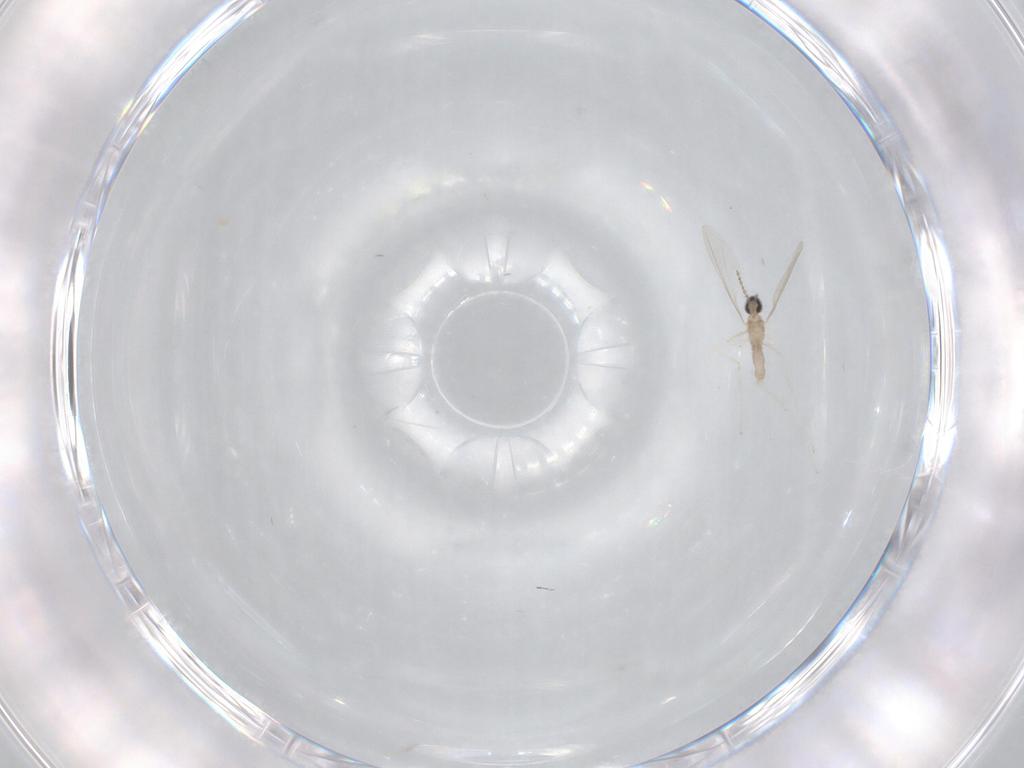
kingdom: Animalia
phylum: Arthropoda
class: Insecta
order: Diptera
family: Cecidomyiidae
